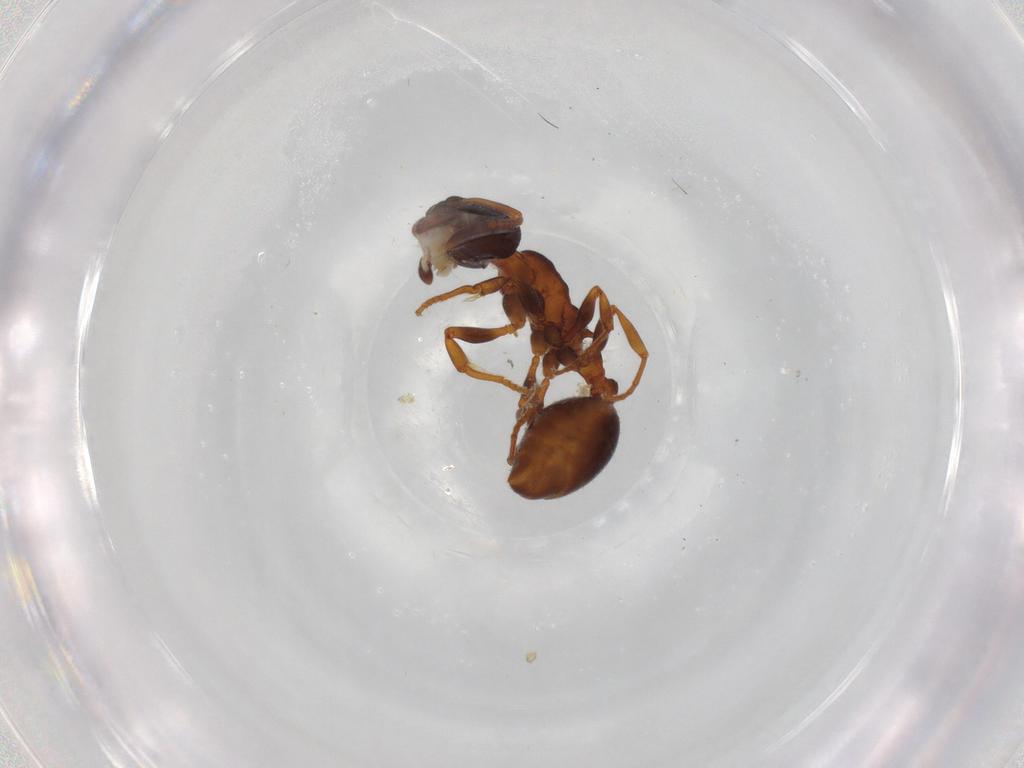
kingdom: Animalia
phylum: Arthropoda
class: Insecta
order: Hymenoptera
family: Formicidae
